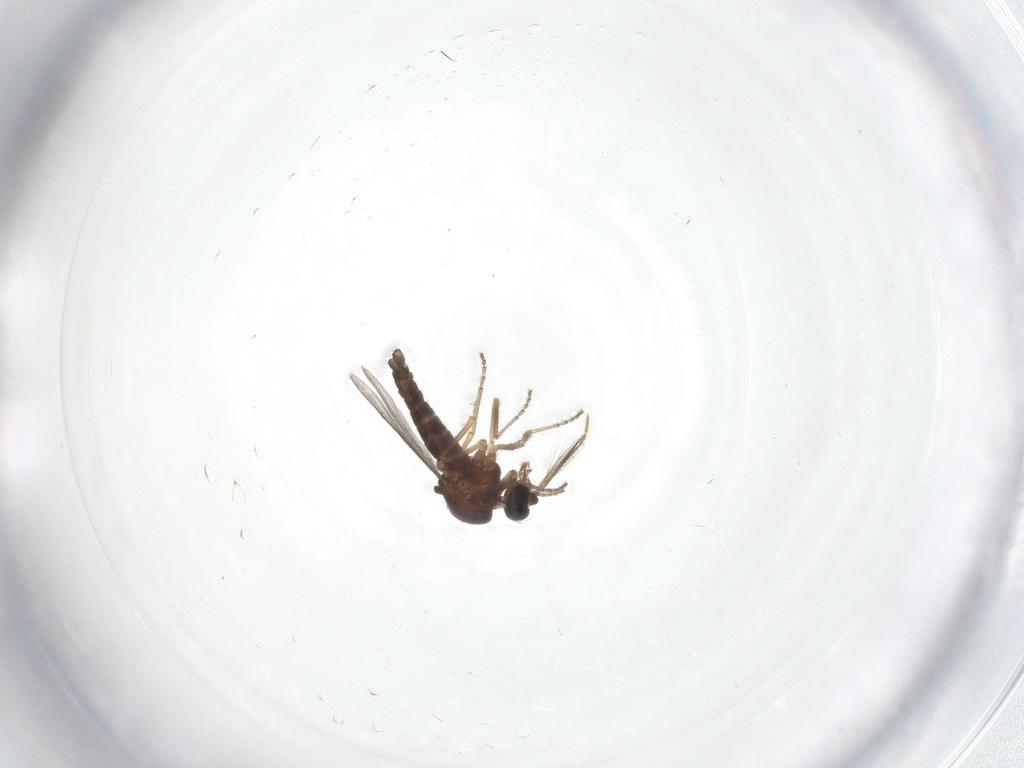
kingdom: Animalia
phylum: Arthropoda
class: Insecta
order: Diptera
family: Ceratopogonidae
